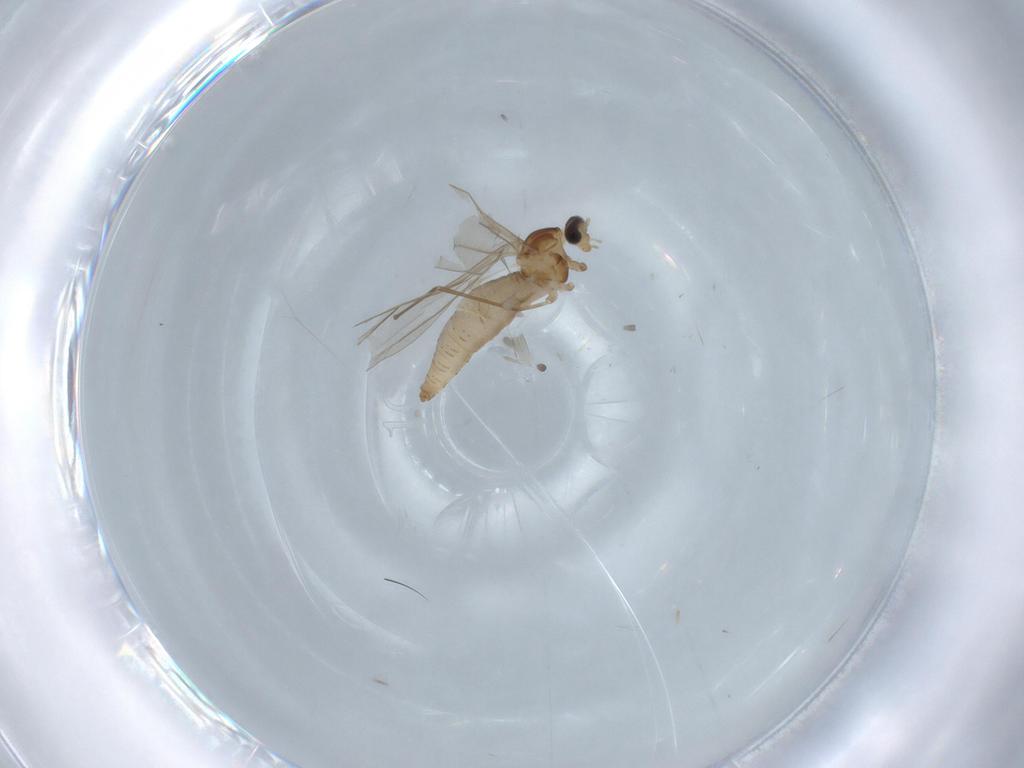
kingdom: Animalia
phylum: Arthropoda
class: Insecta
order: Diptera
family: Cecidomyiidae
